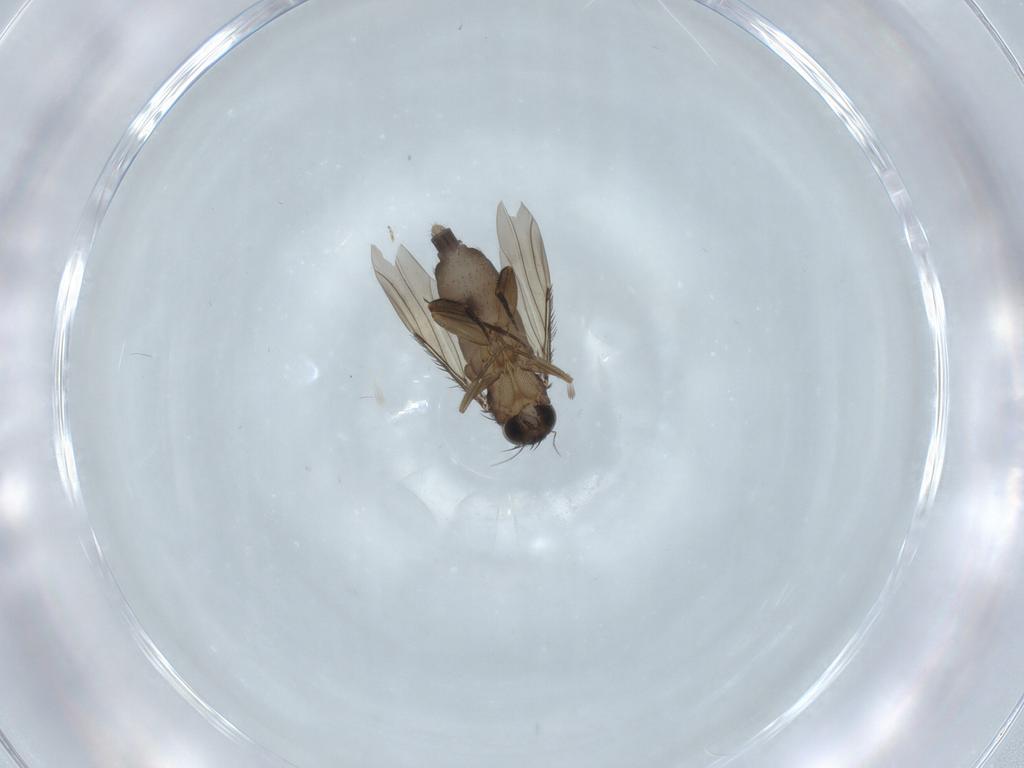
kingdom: Animalia
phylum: Arthropoda
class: Insecta
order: Diptera
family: Phoridae
